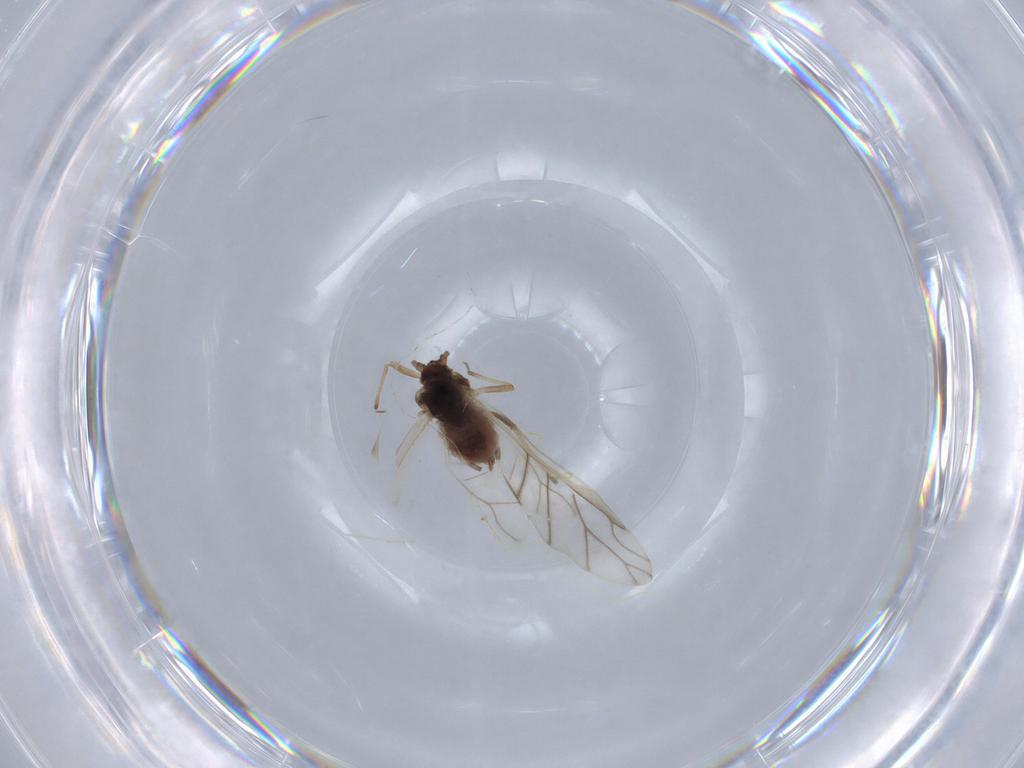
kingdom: Animalia
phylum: Arthropoda
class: Insecta
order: Hemiptera
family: Aphididae
